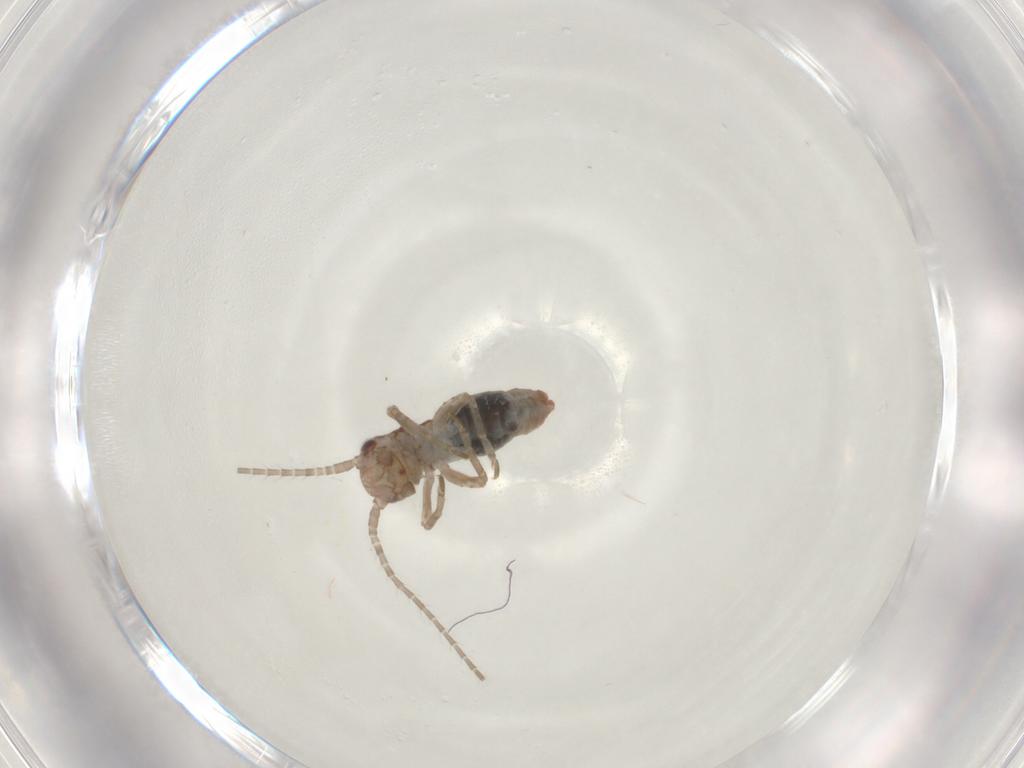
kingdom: Animalia
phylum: Arthropoda
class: Insecta
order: Orthoptera
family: Mogoplistidae
